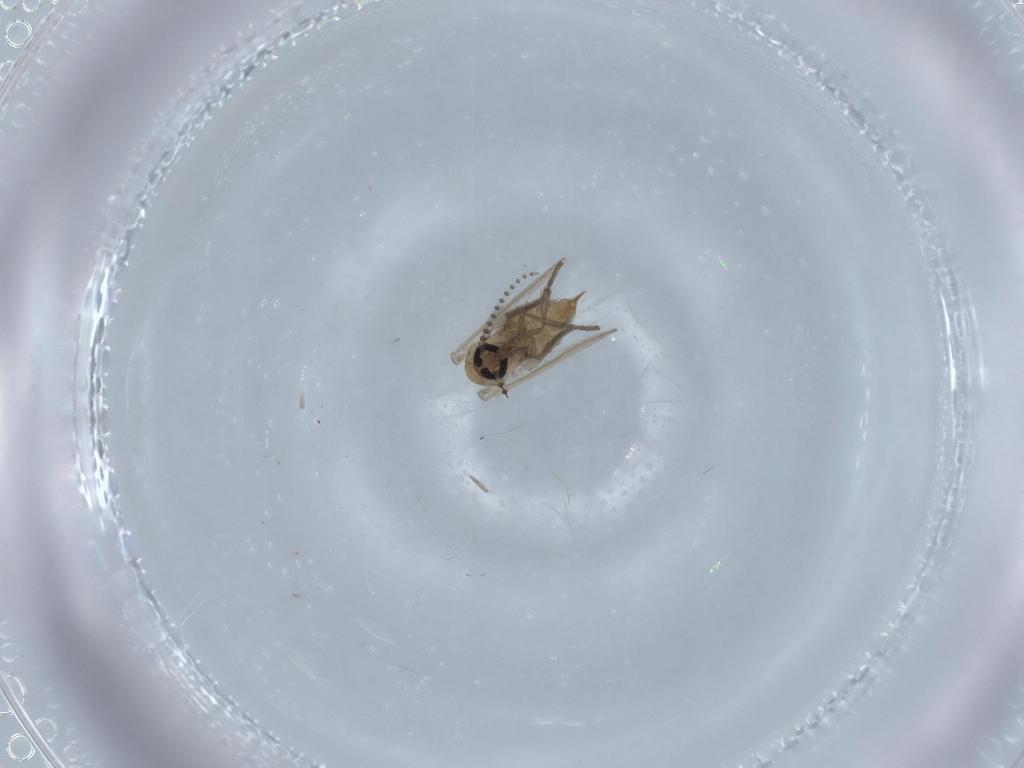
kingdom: Animalia
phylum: Arthropoda
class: Insecta
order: Diptera
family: Psychodidae
